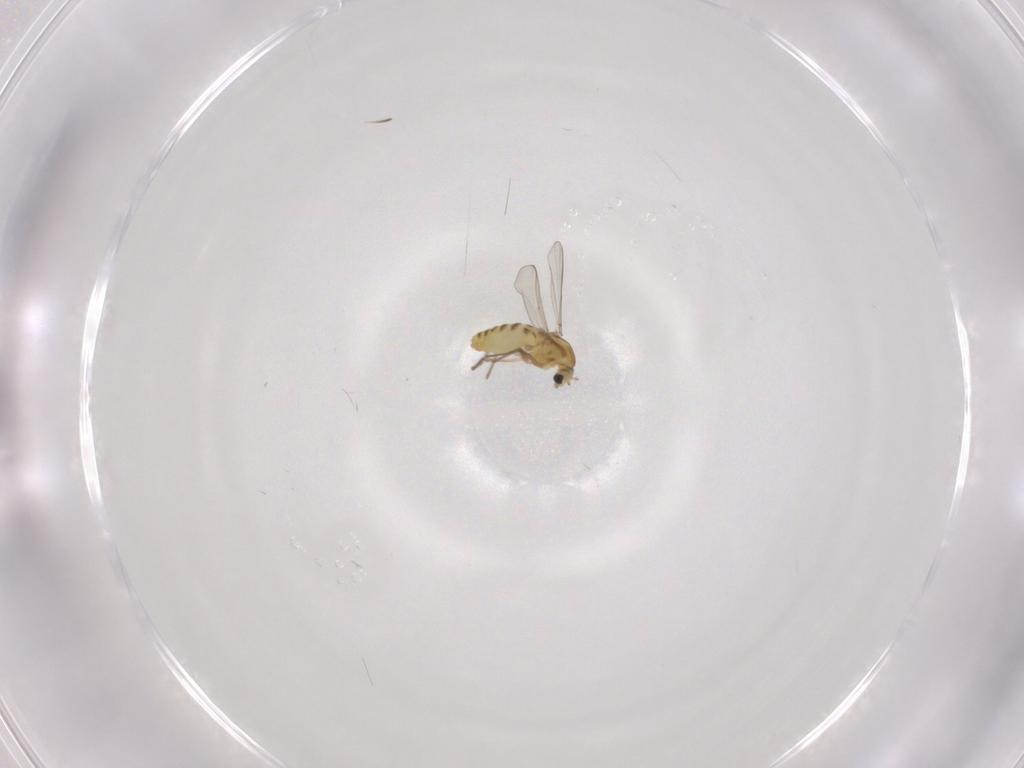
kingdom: Animalia
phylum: Arthropoda
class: Insecta
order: Diptera
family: Chironomidae
